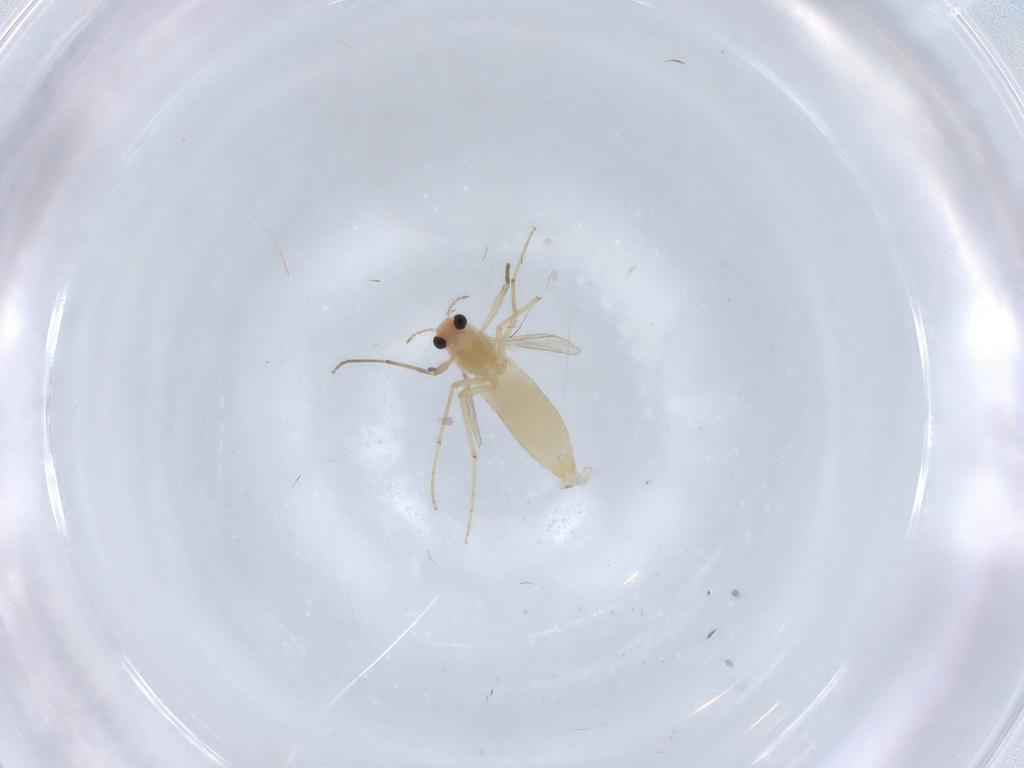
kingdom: Animalia
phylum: Arthropoda
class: Insecta
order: Diptera
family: Chironomidae
